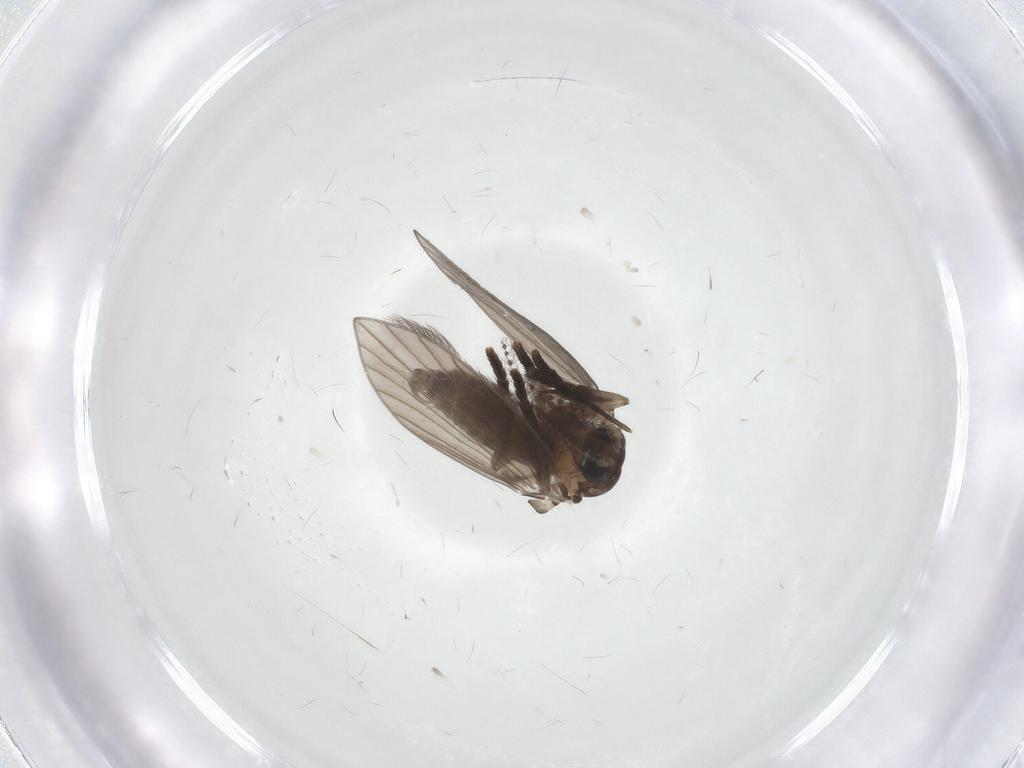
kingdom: Animalia
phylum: Arthropoda
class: Insecta
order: Diptera
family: Psychodidae
